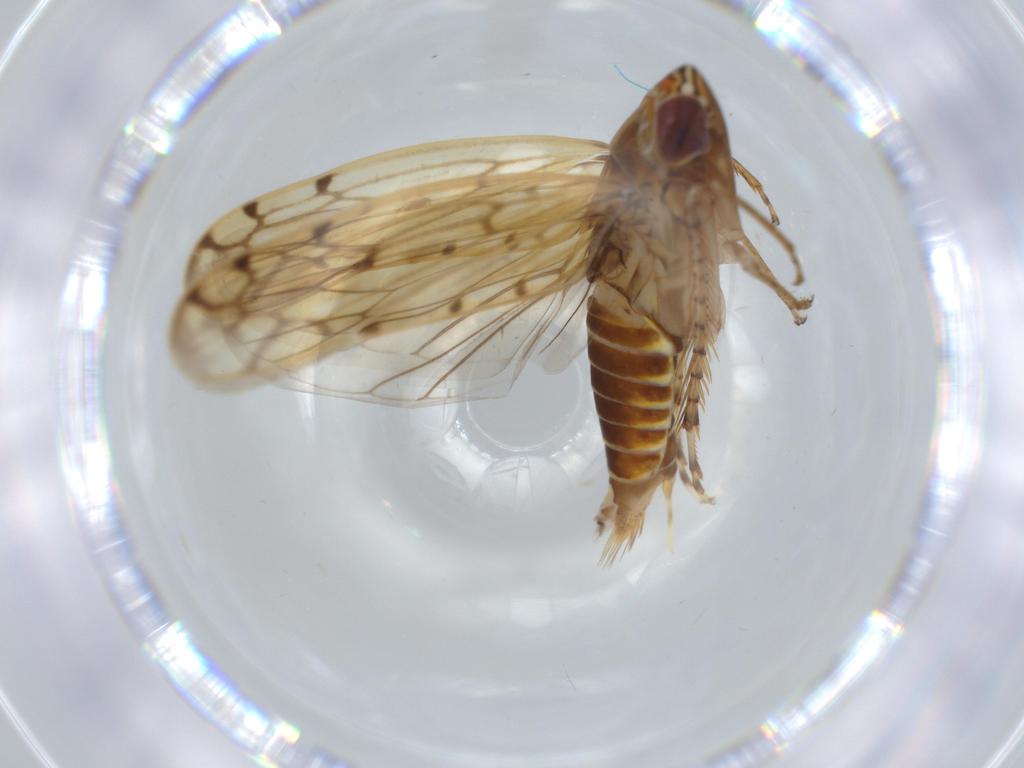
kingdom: Animalia
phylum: Arthropoda
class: Insecta
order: Hemiptera
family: Cicadellidae
